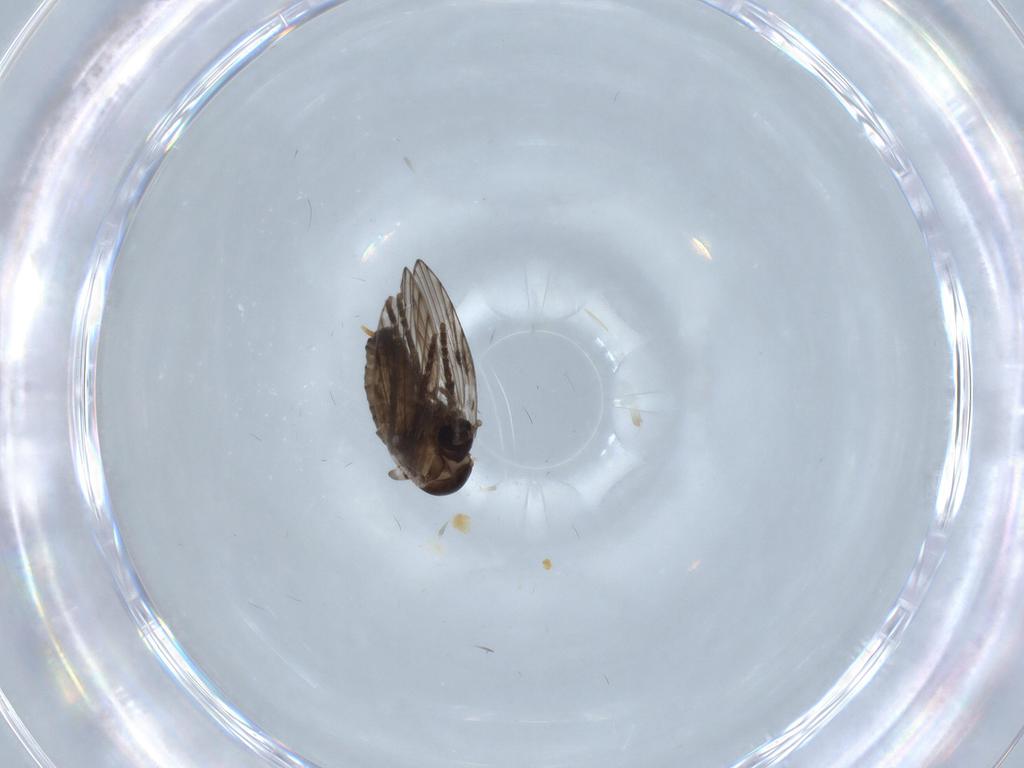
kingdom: Animalia
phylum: Arthropoda
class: Insecta
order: Diptera
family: Psychodidae
